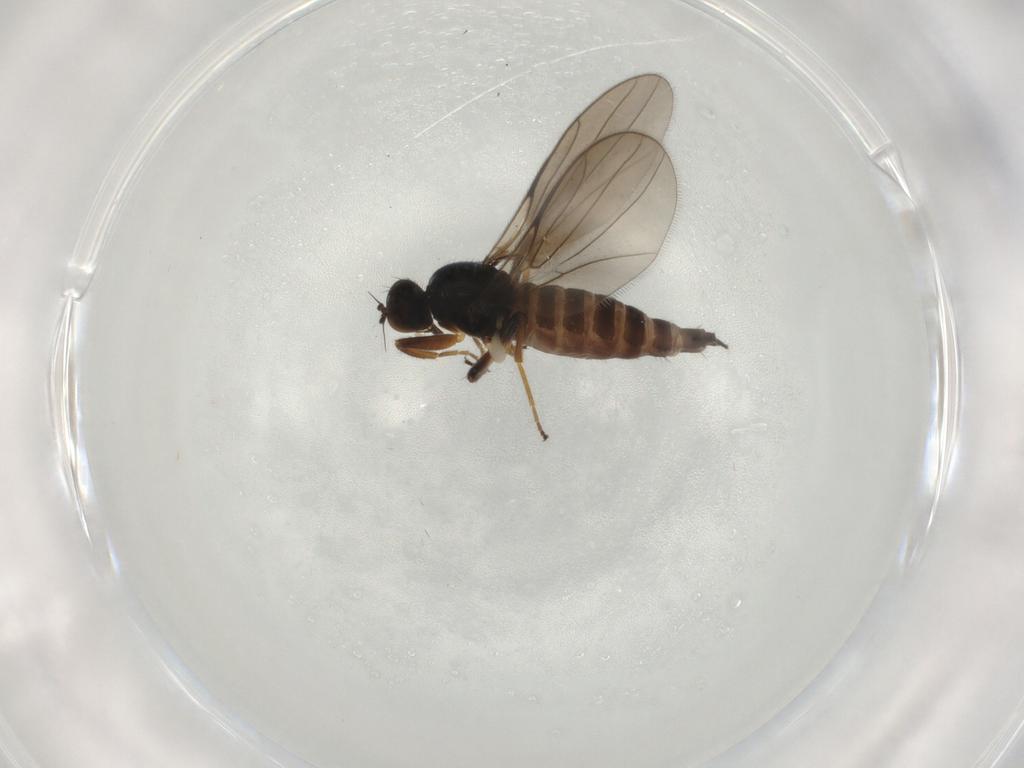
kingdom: Animalia
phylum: Arthropoda
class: Insecta
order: Diptera
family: Hybotidae
